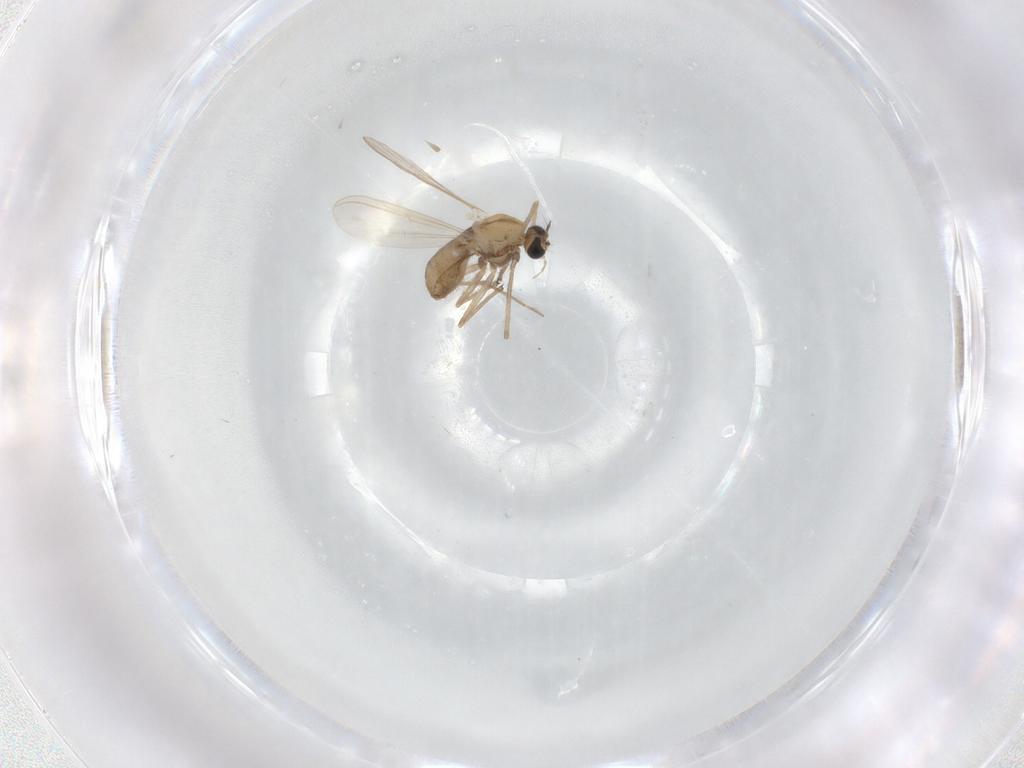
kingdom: Animalia
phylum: Arthropoda
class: Insecta
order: Diptera
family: Chironomidae
